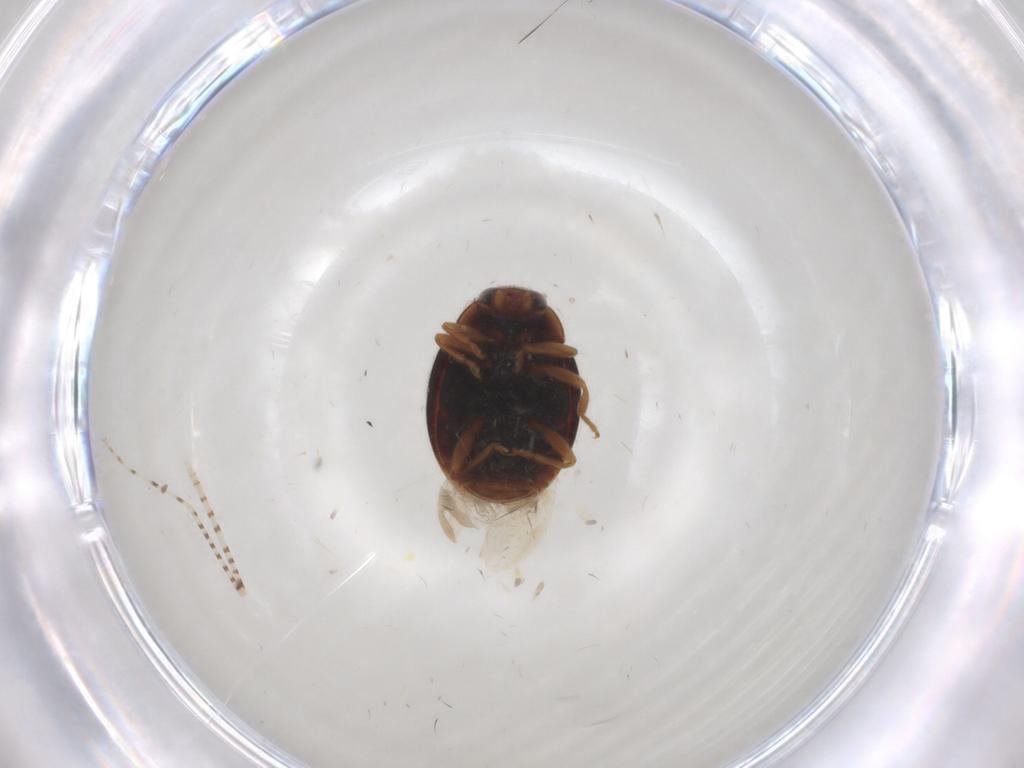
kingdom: Animalia
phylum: Arthropoda
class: Insecta
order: Coleoptera
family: Coccinellidae
